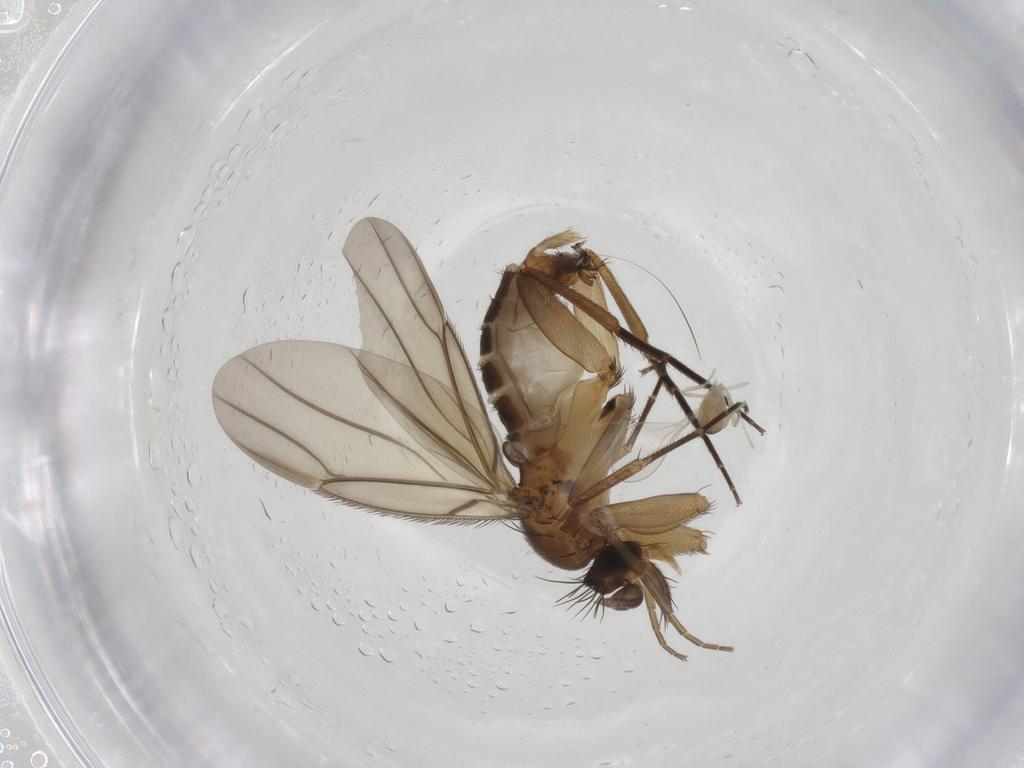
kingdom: Animalia
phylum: Arthropoda
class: Insecta
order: Diptera
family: Phoridae
